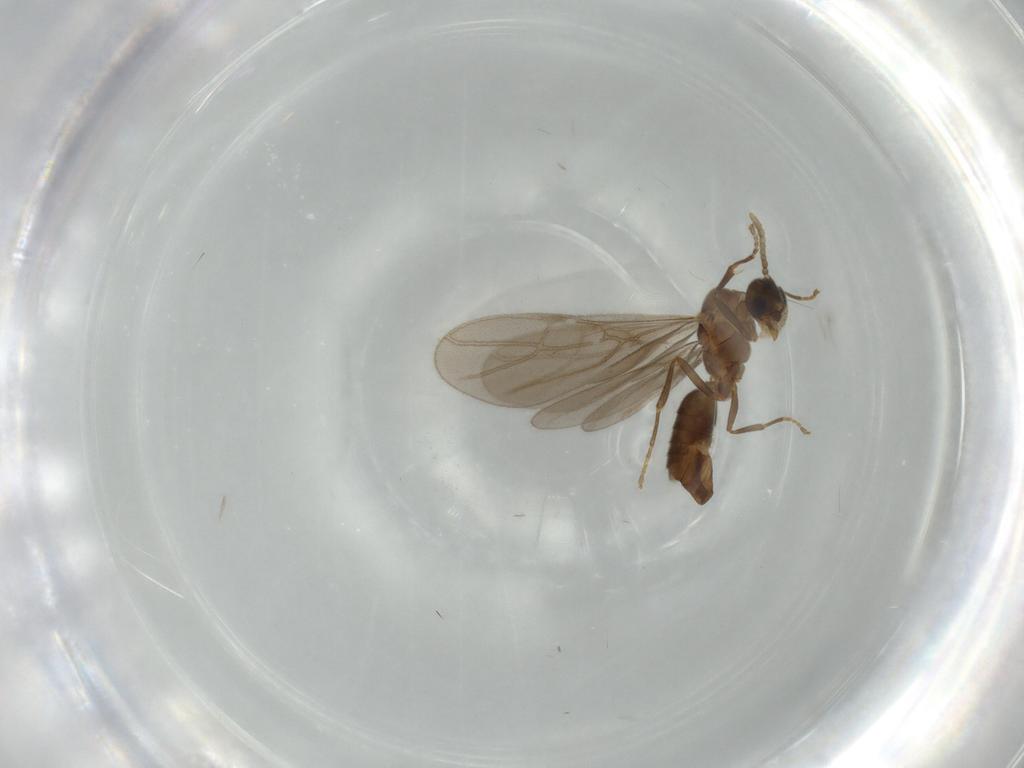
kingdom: Animalia
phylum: Arthropoda
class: Insecta
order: Hymenoptera
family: Formicidae
